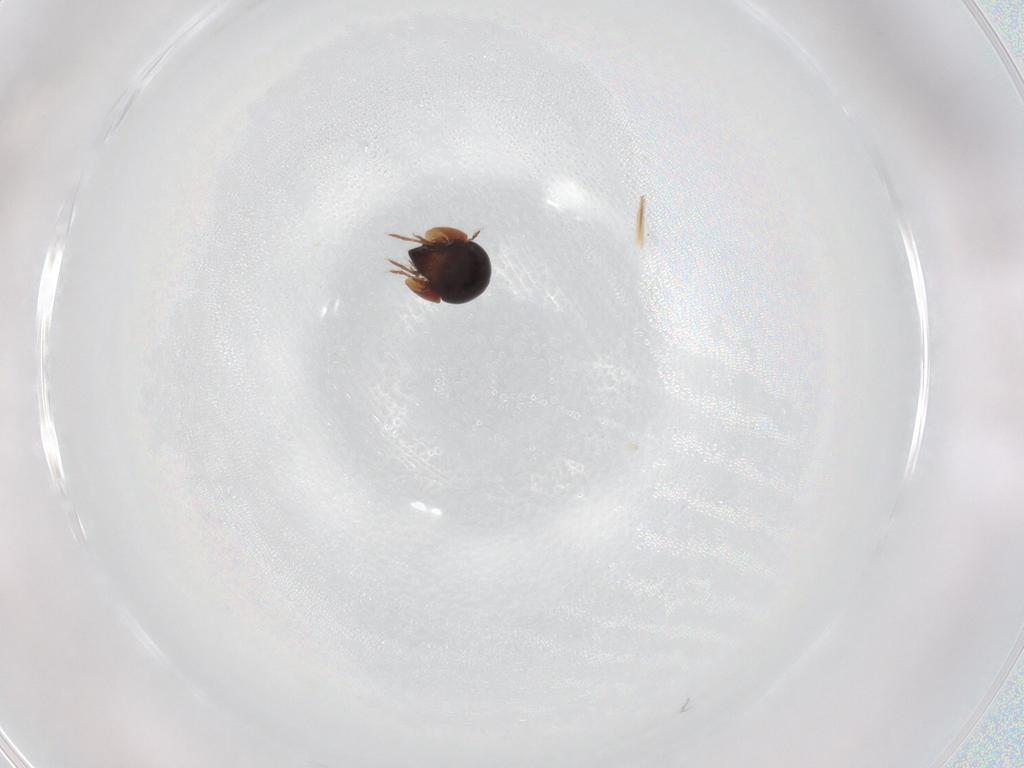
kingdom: Animalia
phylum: Arthropoda
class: Arachnida
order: Sarcoptiformes
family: Ceratozetidae
